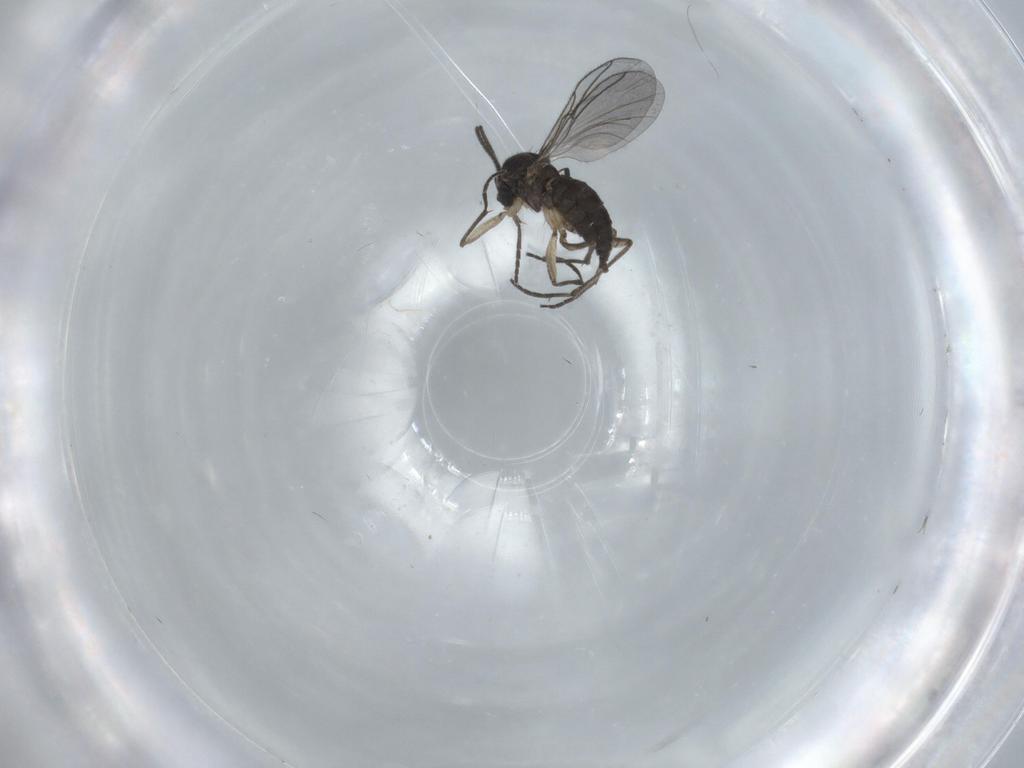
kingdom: Animalia
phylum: Arthropoda
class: Insecta
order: Diptera
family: Sciaridae
